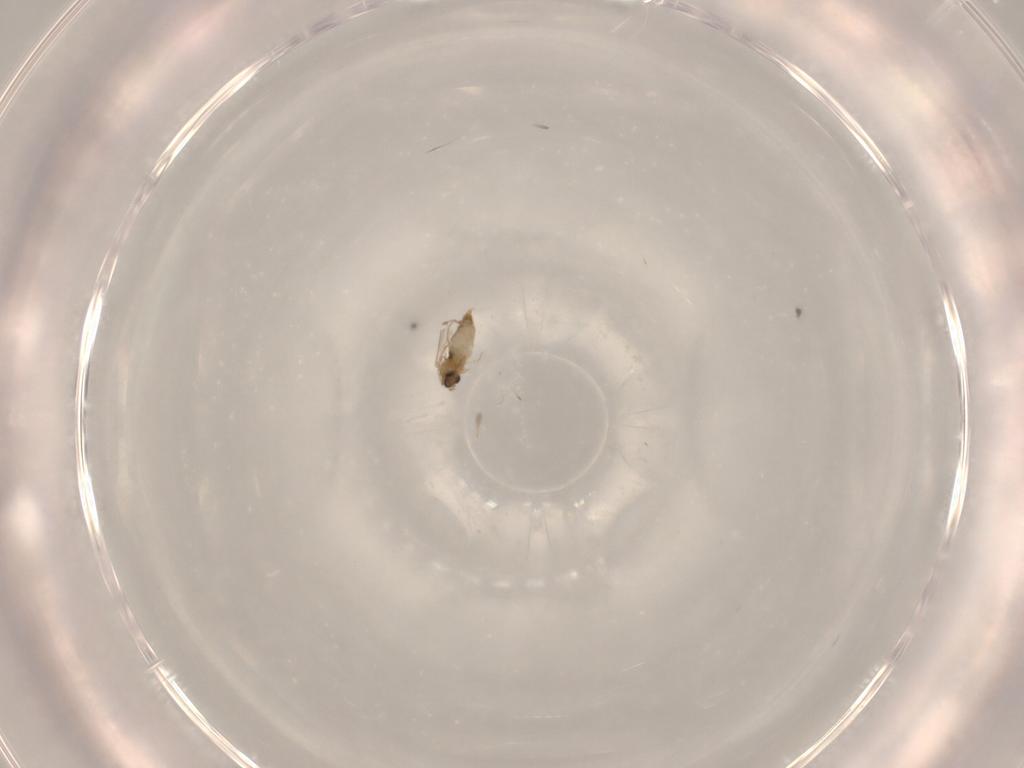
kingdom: Animalia
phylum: Arthropoda
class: Insecta
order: Diptera
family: Cecidomyiidae
